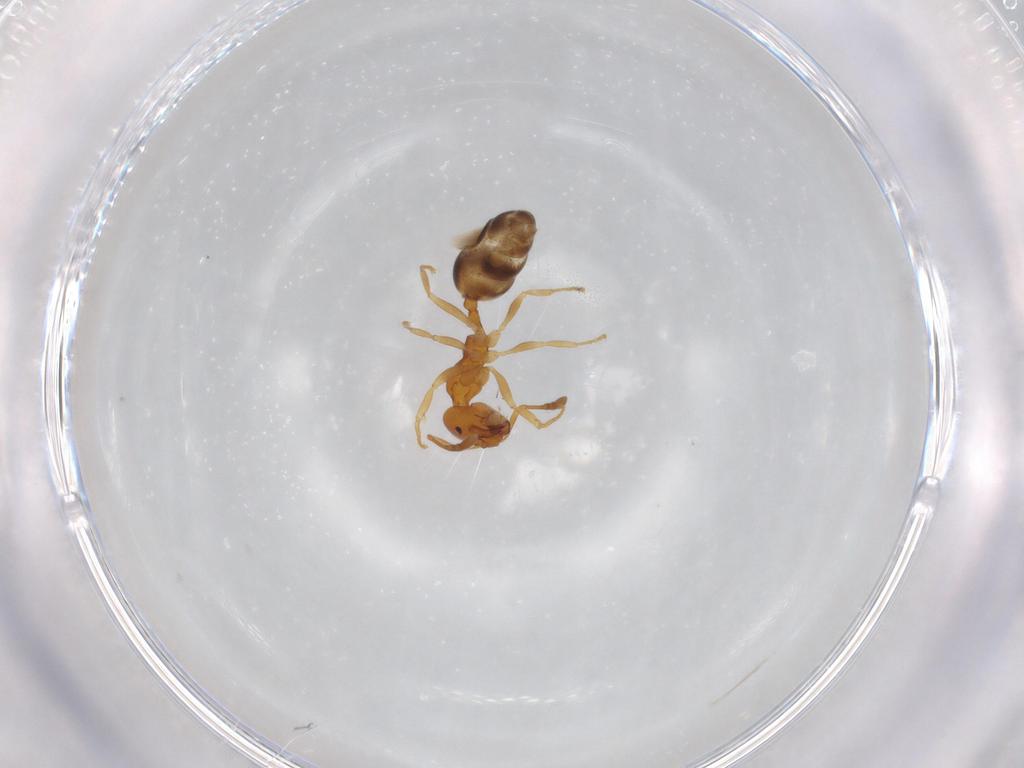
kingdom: Animalia
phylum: Arthropoda
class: Insecta
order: Hymenoptera
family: Formicidae
